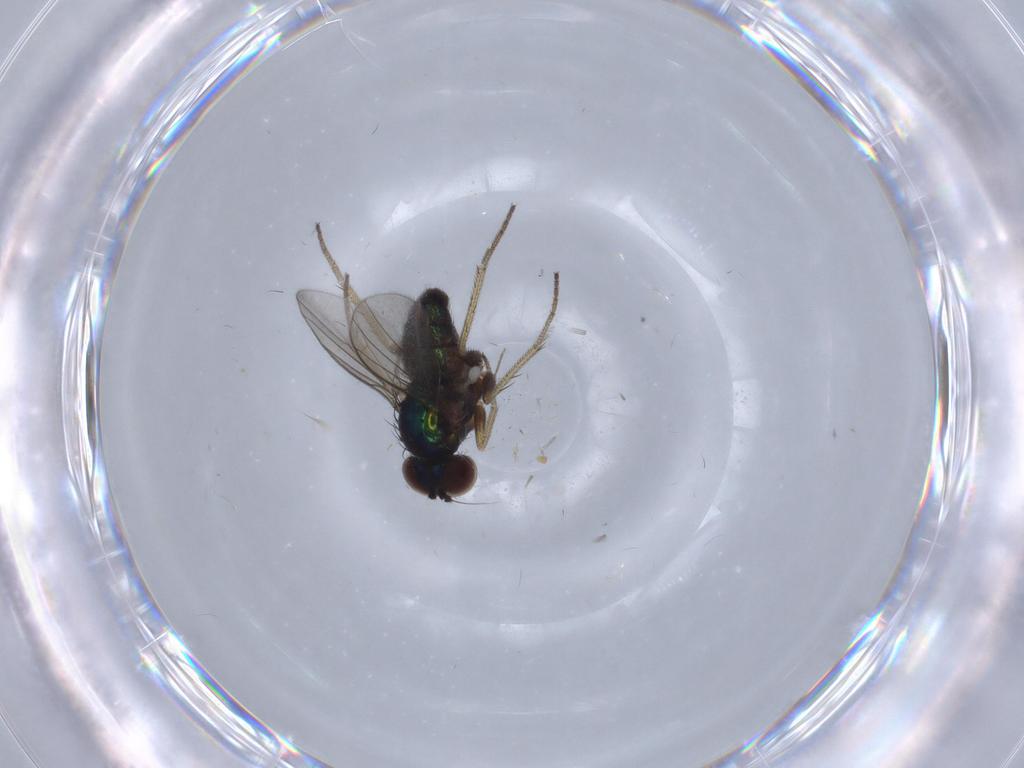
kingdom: Animalia
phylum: Arthropoda
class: Insecta
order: Diptera
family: Chironomidae
